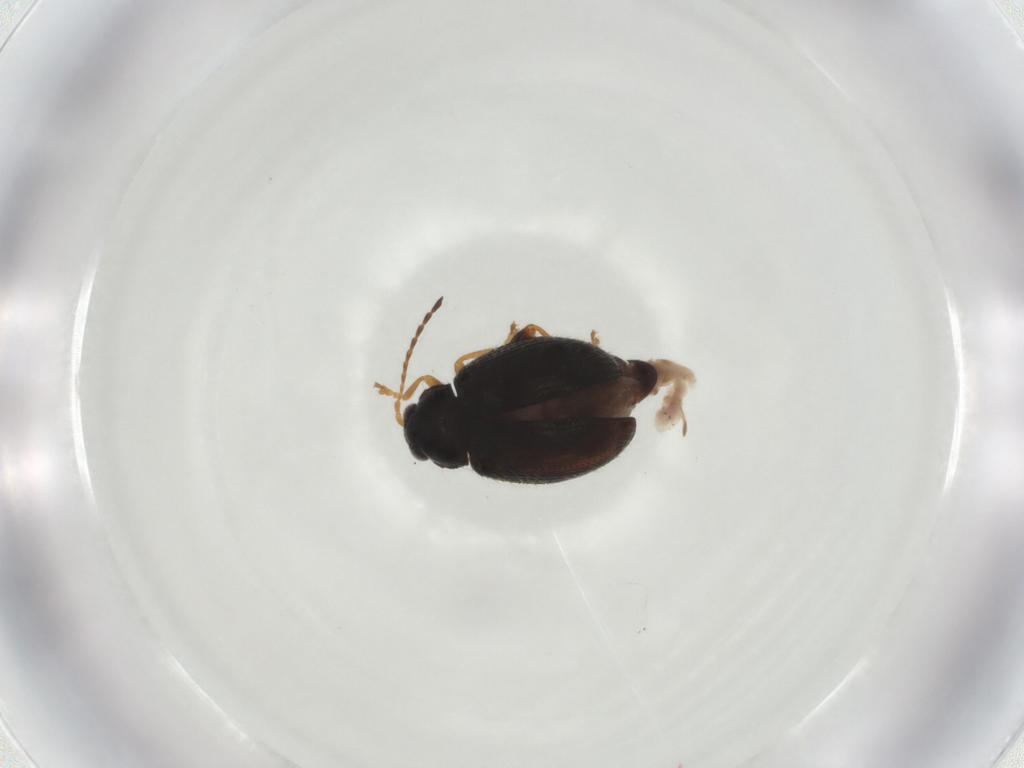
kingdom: Animalia
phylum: Arthropoda
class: Insecta
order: Coleoptera
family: Chrysomelidae
